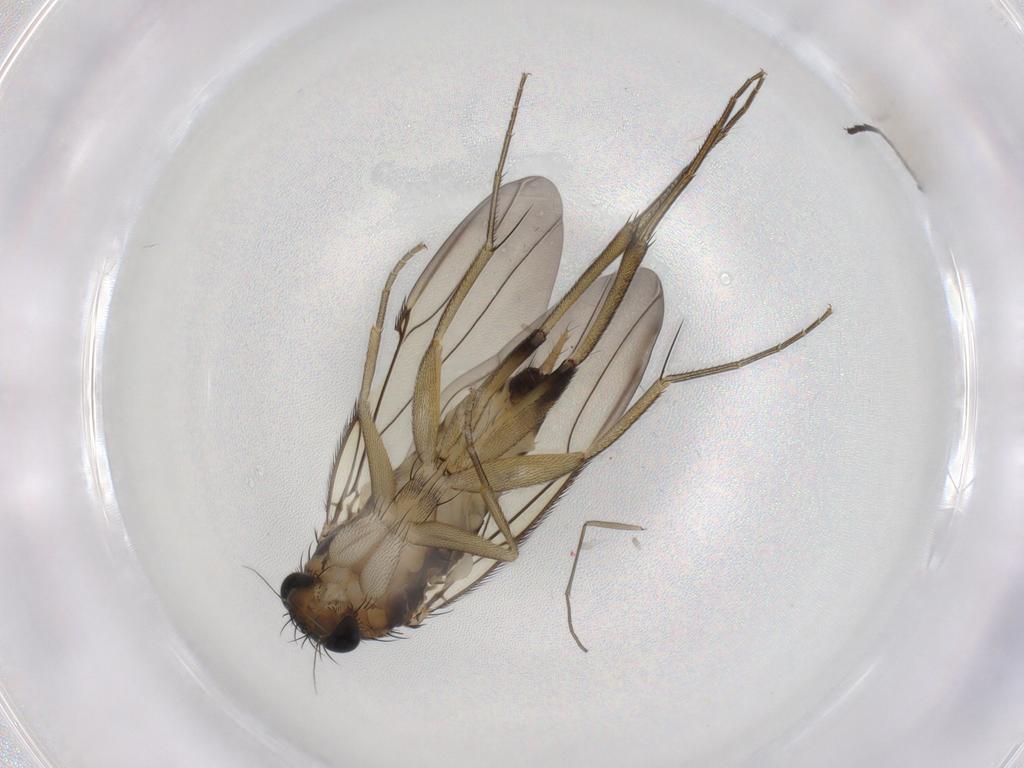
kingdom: Animalia
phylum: Arthropoda
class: Insecta
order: Diptera
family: Phoridae
